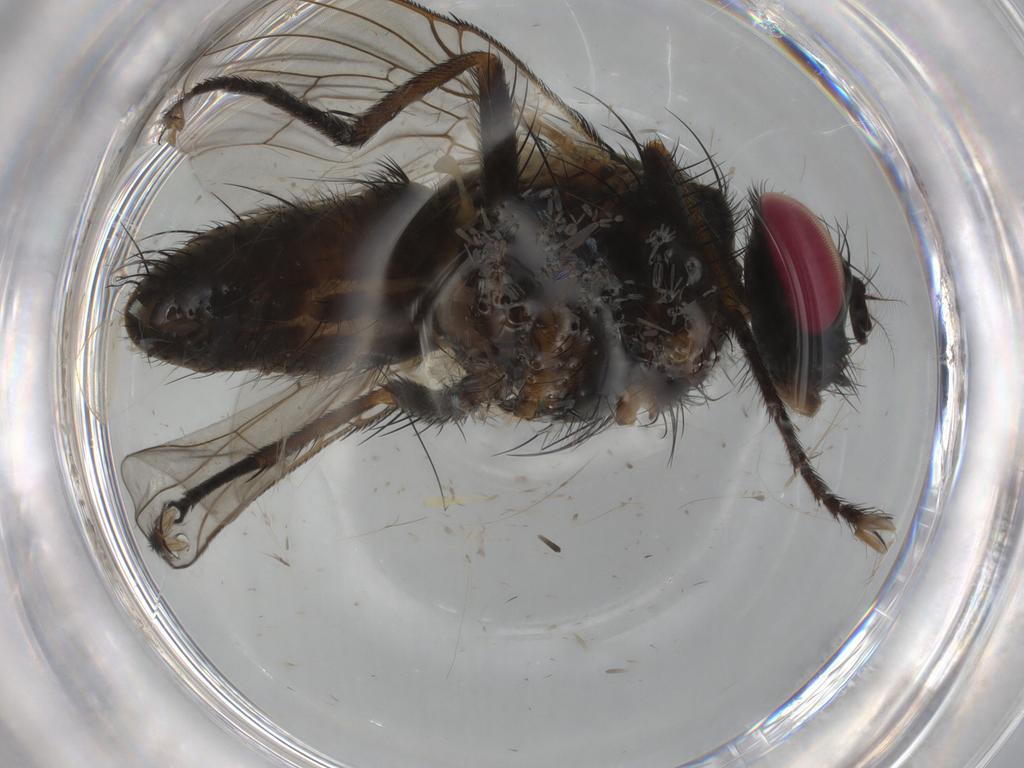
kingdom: Animalia
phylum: Arthropoda
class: Insecta
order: Diptera
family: Muscidae
